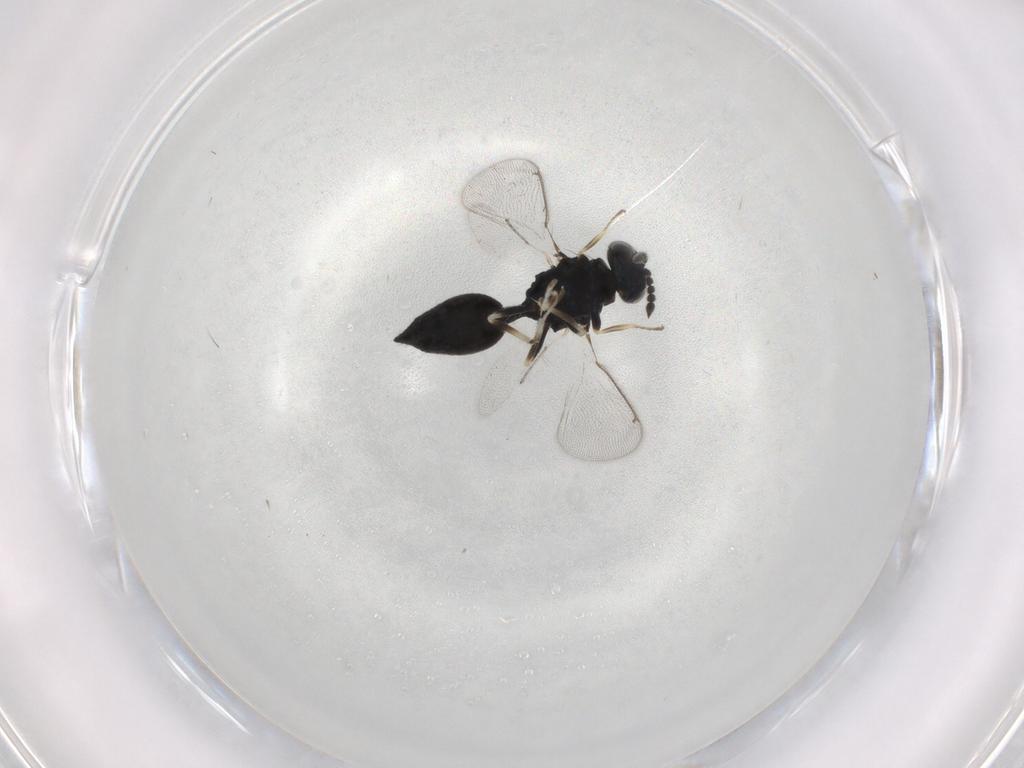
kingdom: Animalia
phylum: Arthropoda
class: Insecta
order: Hymenoptera
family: Eulophidae
